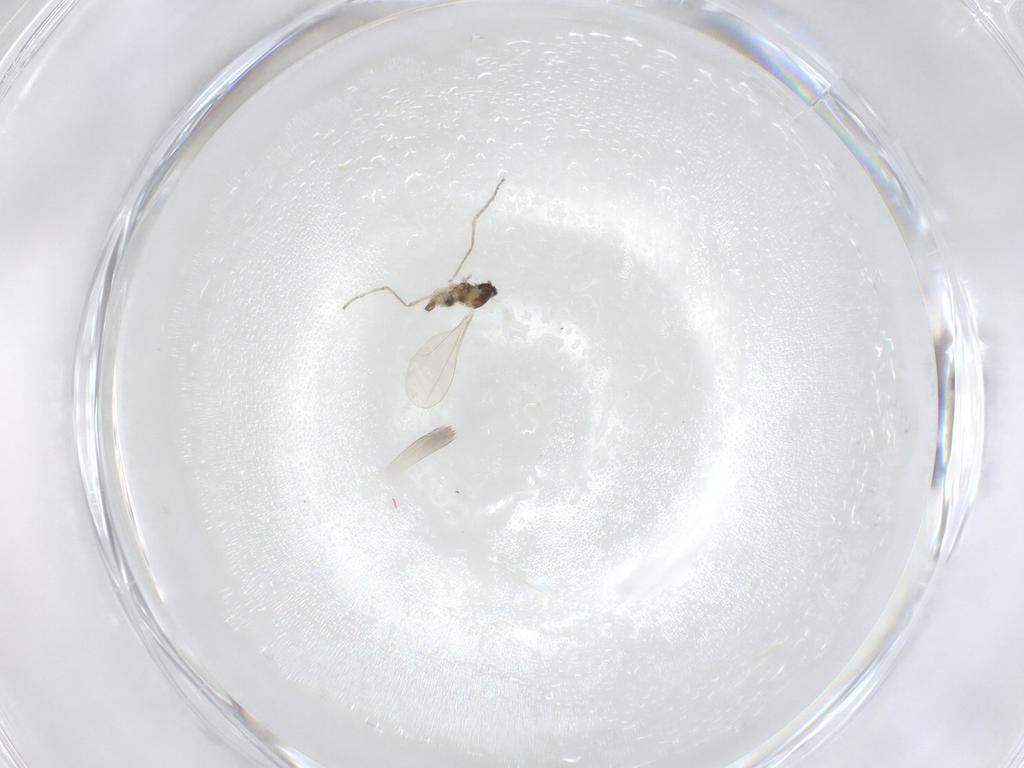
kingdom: Animalia
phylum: Arthropoda
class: Insecta
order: Diptera
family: Cecidomyiidae
